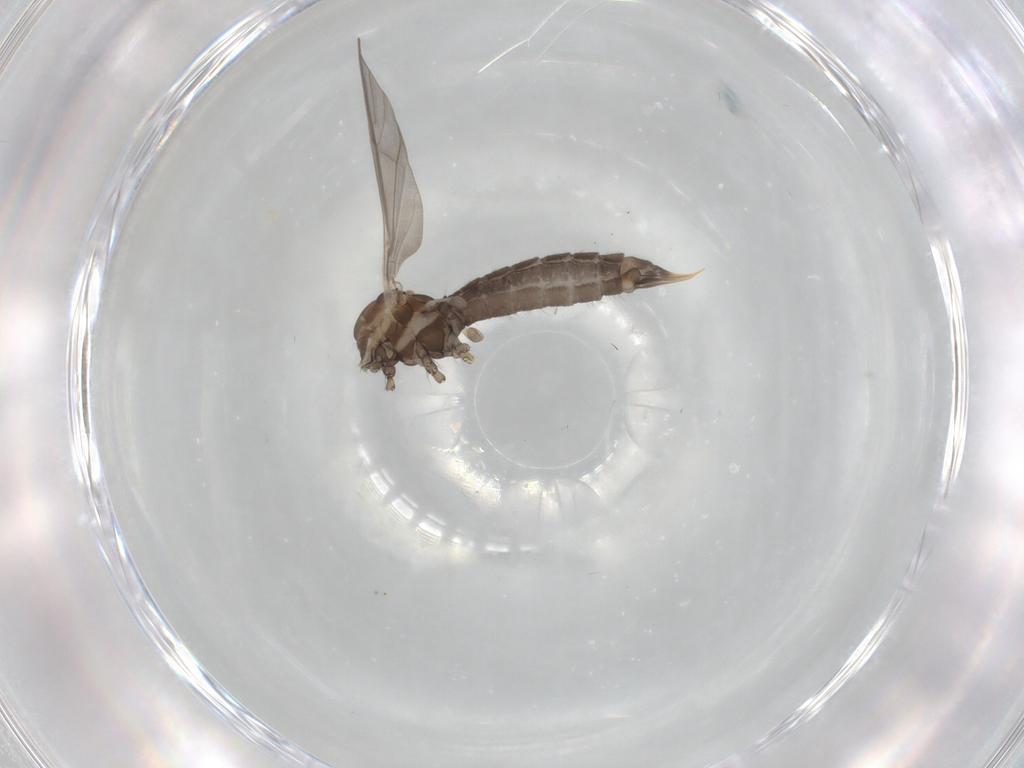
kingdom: Animalia
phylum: Arthropoda
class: Insecta
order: Diptera
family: Limoniidae
